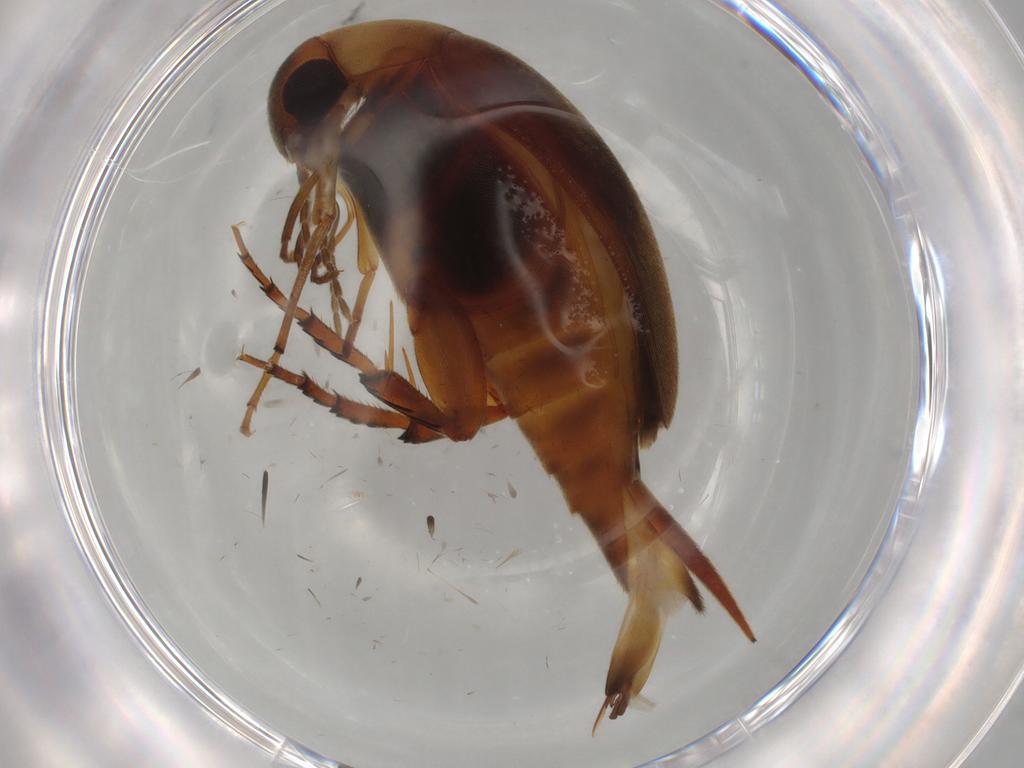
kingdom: Animalia
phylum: Arthropoda
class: Insecta
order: Coleoptera
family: Mordellidae
